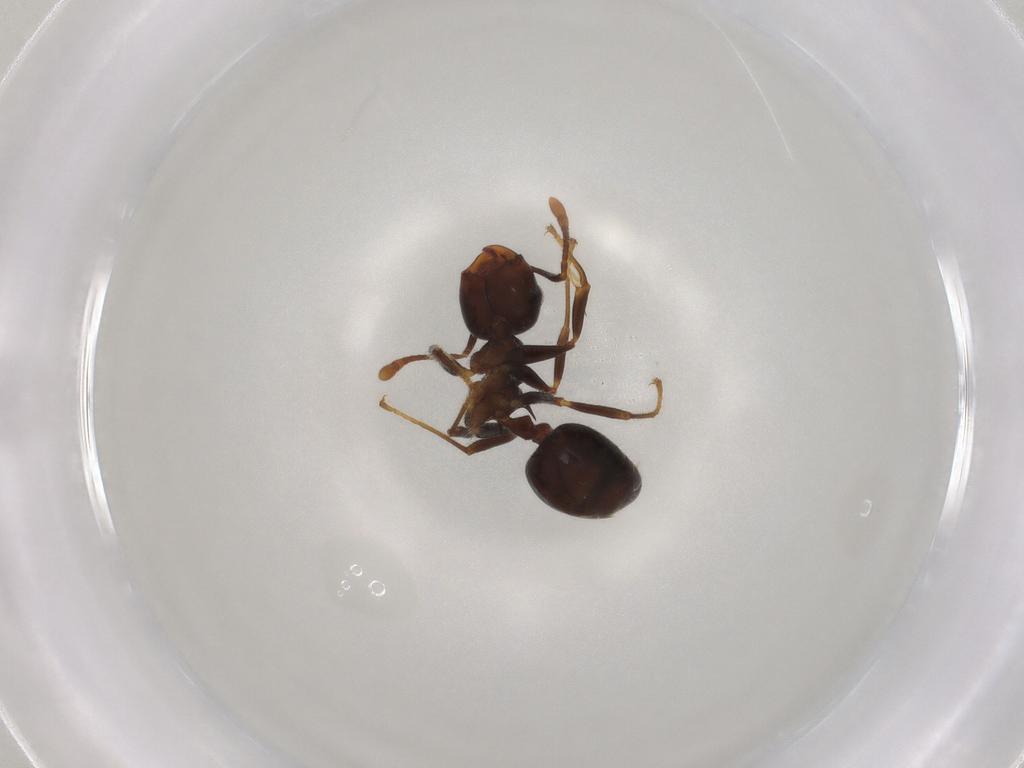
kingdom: Animalia
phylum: Arthropoda
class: Insecta
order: Hymenoptera
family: Formicidae
